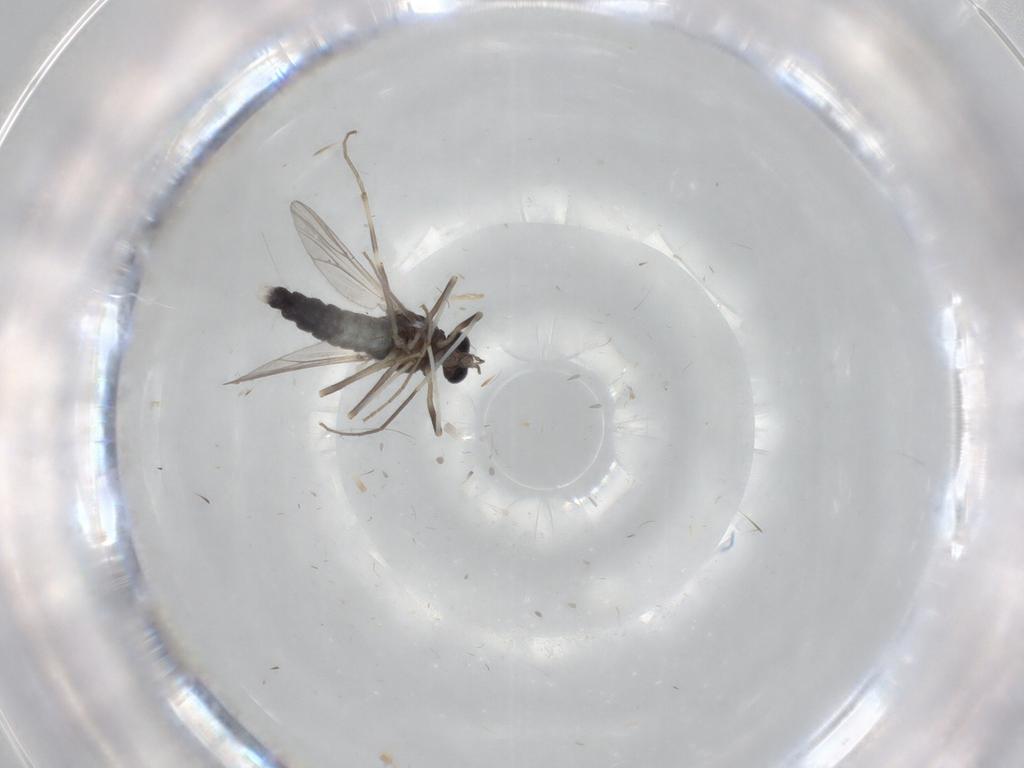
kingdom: Animalia
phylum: Arthropoda
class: Insecta
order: Diptera
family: Chironomidae
